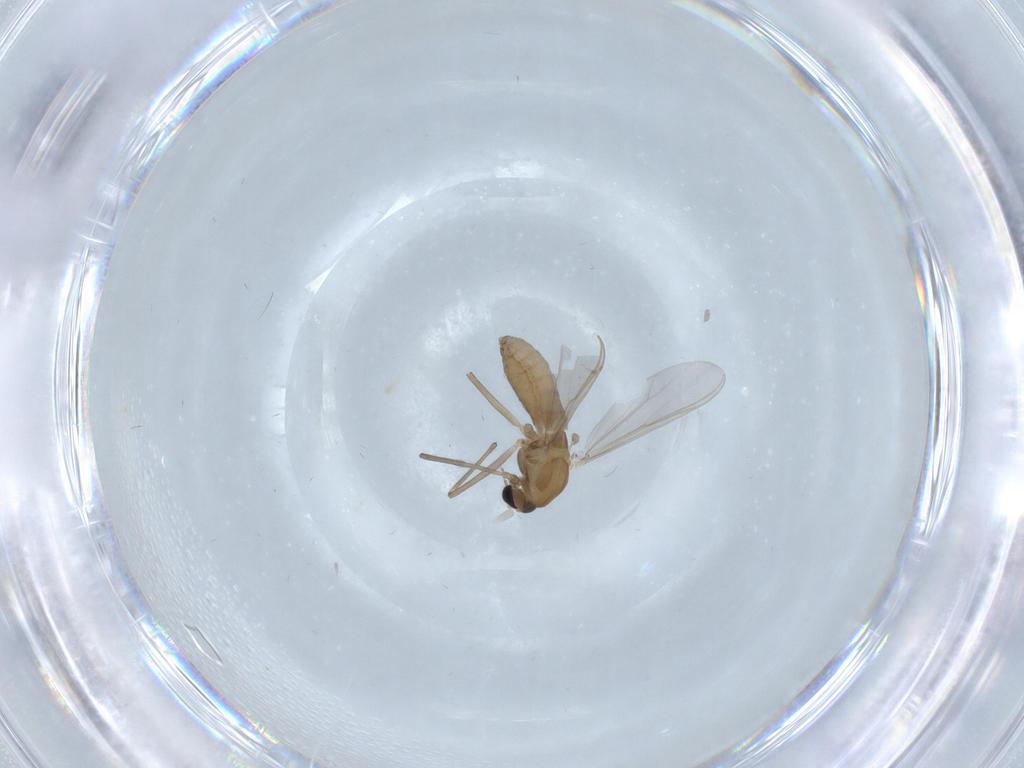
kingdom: Animalia
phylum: Arthropoda
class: Insecta
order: Diptera
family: Chironomidae
